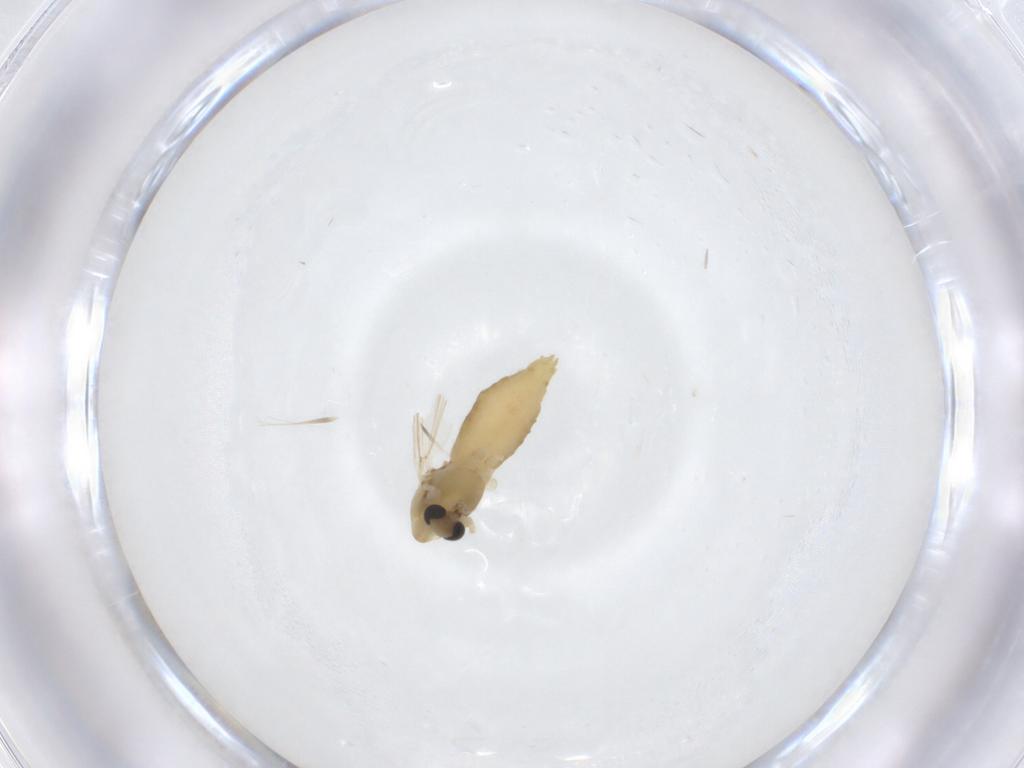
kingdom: Animalia
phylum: Arthropoda
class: Insecta
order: Diptera
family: Chironomidae
